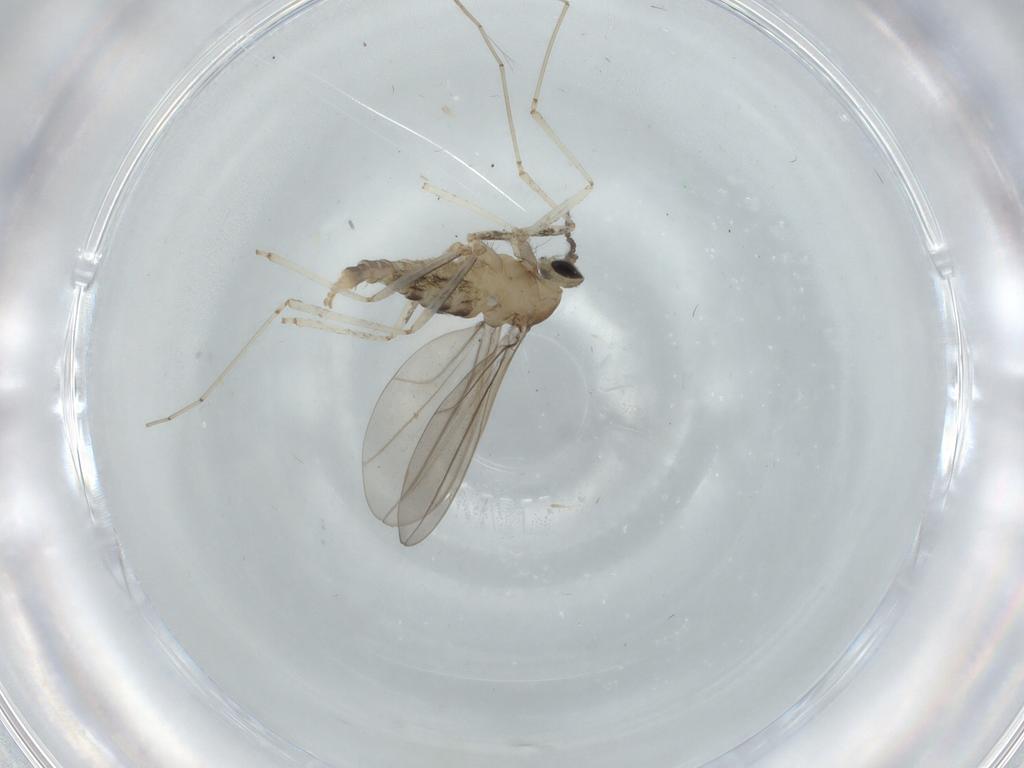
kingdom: Animalia
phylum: Arthropoda
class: Insecta
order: Diptera
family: Cecidomyiidae
